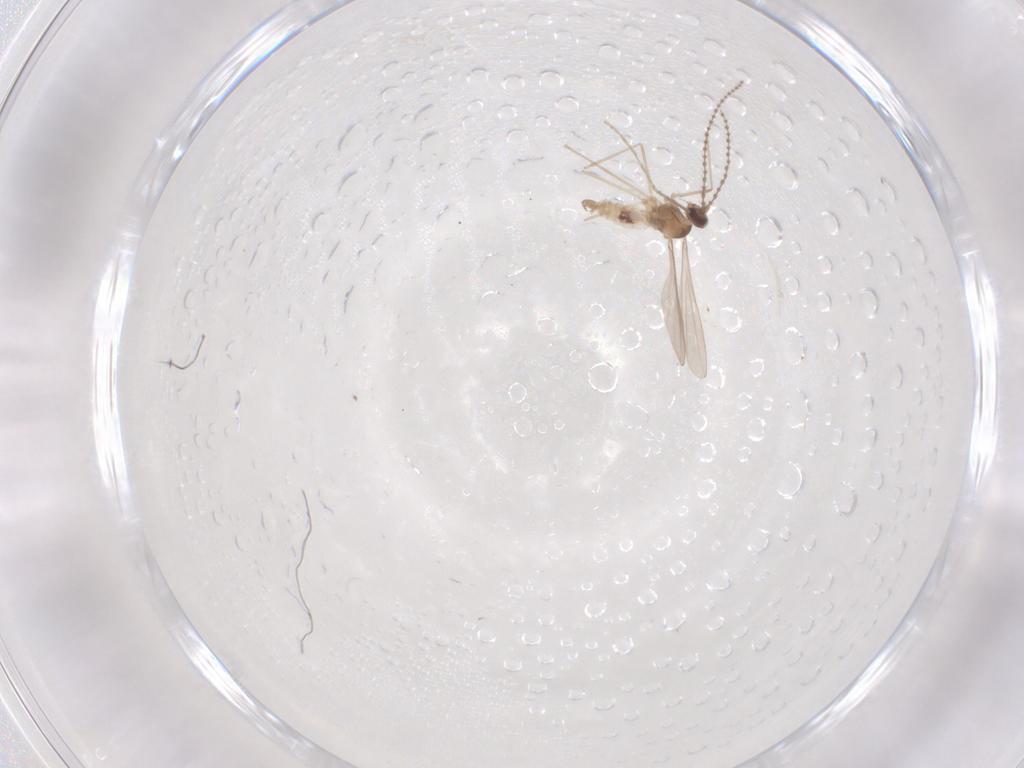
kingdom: Animalia
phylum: Arthropoda
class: Insecta
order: Diptera
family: Cecidomyiidae
